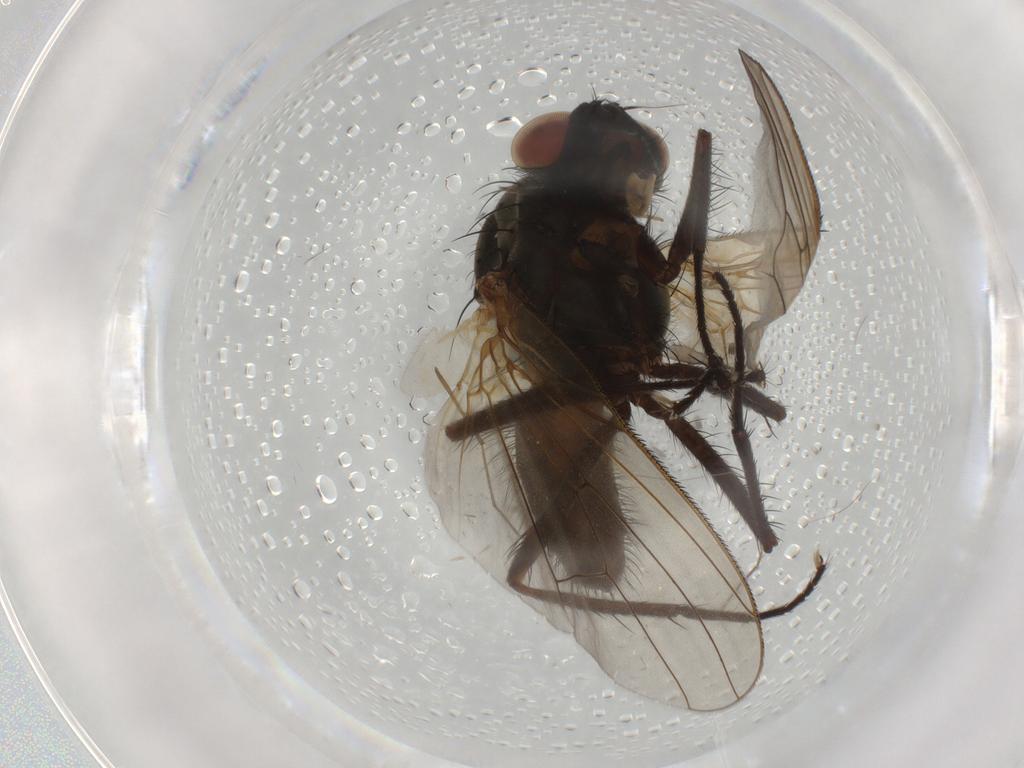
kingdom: Animalia
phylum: Arthropoda
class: Insecta
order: Diptera
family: Anthomyiidae
